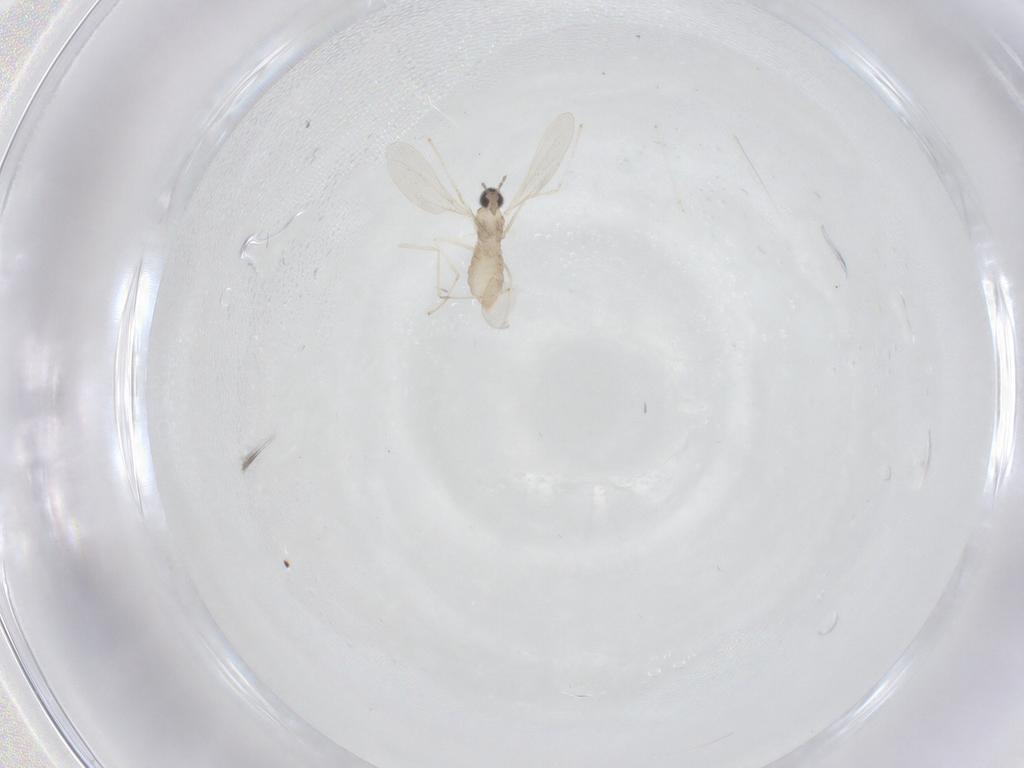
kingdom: Animalia
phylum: Arthropoda
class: Insecta
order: Diptera
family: Cecidomyiidae
